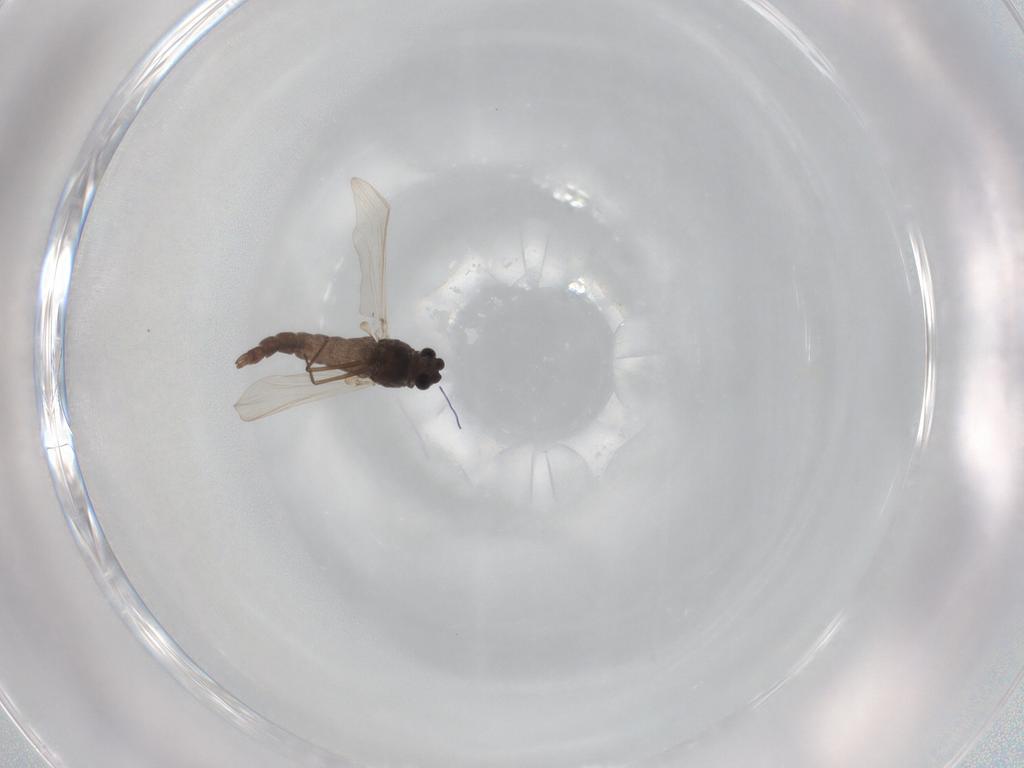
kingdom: Animalia
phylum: Arthropoda
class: Insecta
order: Diptera
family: Chironomidae
